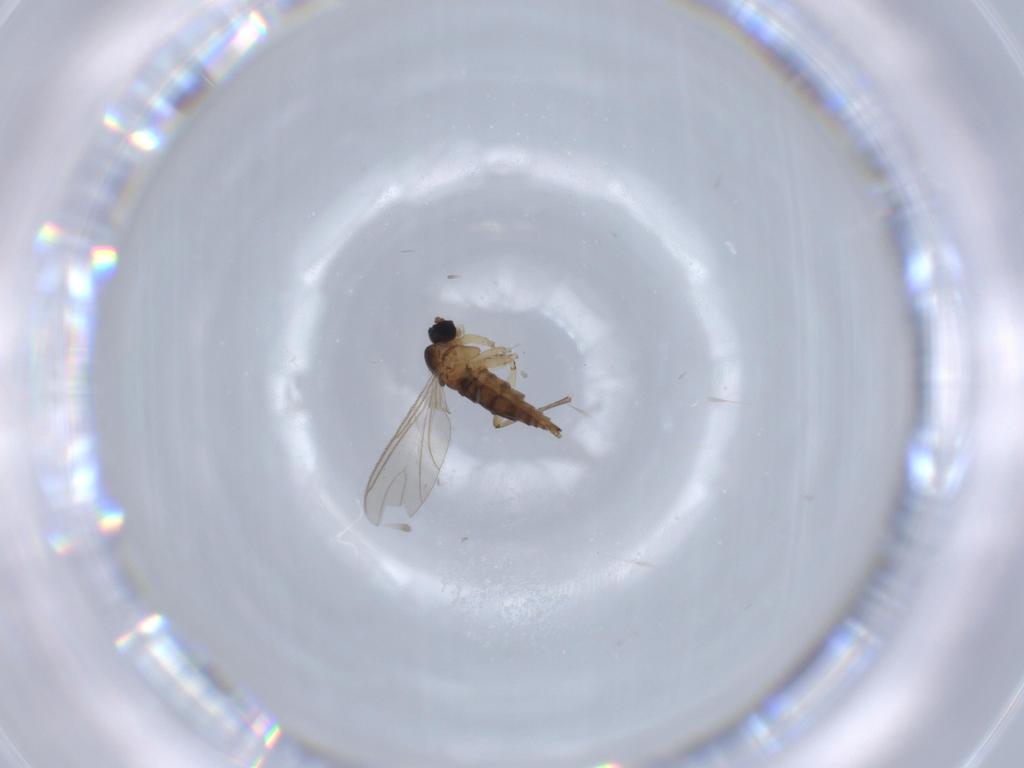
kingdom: Animalia
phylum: Arthropoda
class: Insecta
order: Diptera
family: Sciaridae
